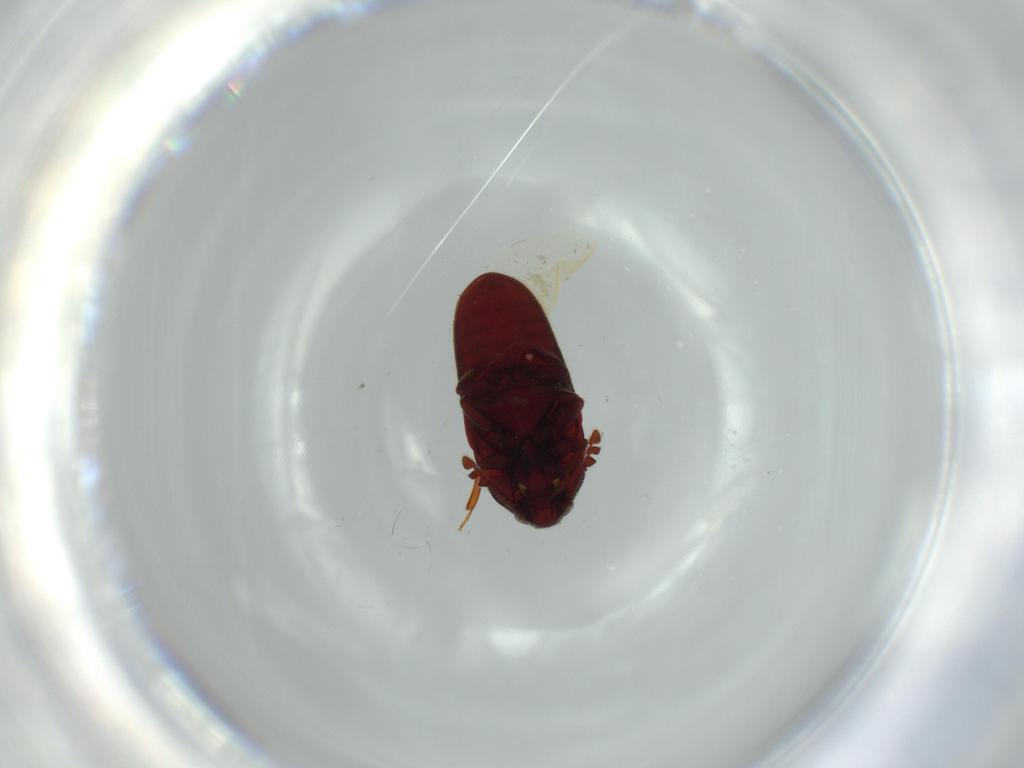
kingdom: Animalia
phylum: Arthropoda
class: Insecta
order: Coleoptera
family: Throscidae
